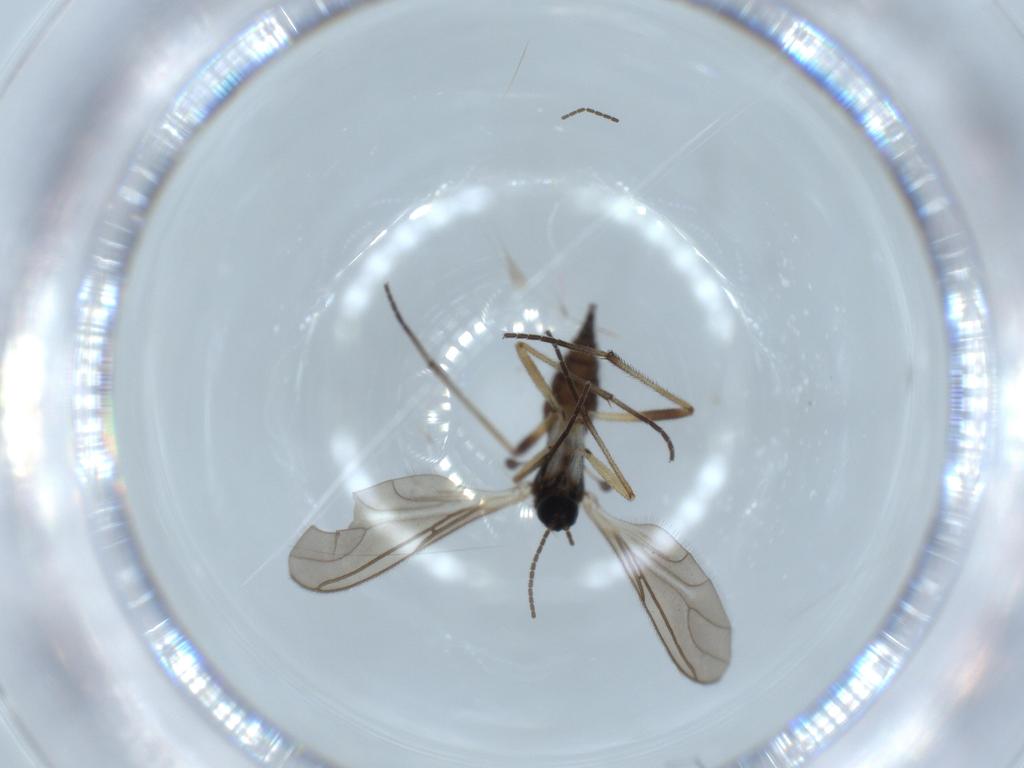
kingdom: Animalia
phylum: Arthropoda
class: Insecta
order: Diptera
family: Sciaridae
